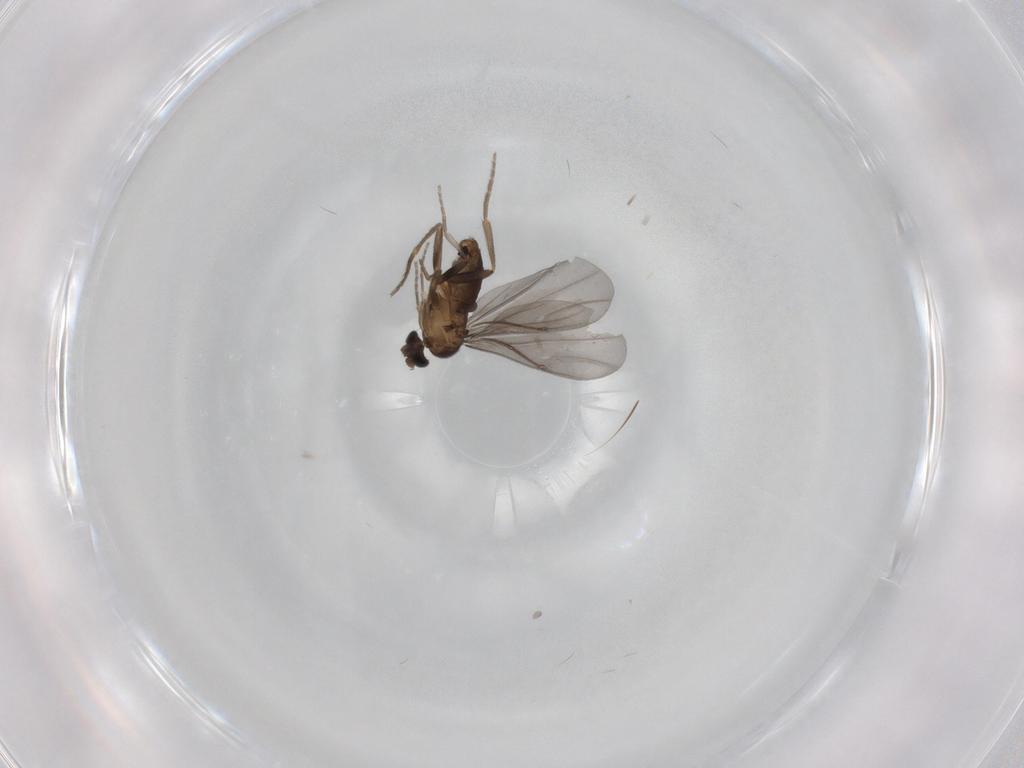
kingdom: Animalia
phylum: Arthropoda
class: Insecta
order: Diptera
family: Phoridae
